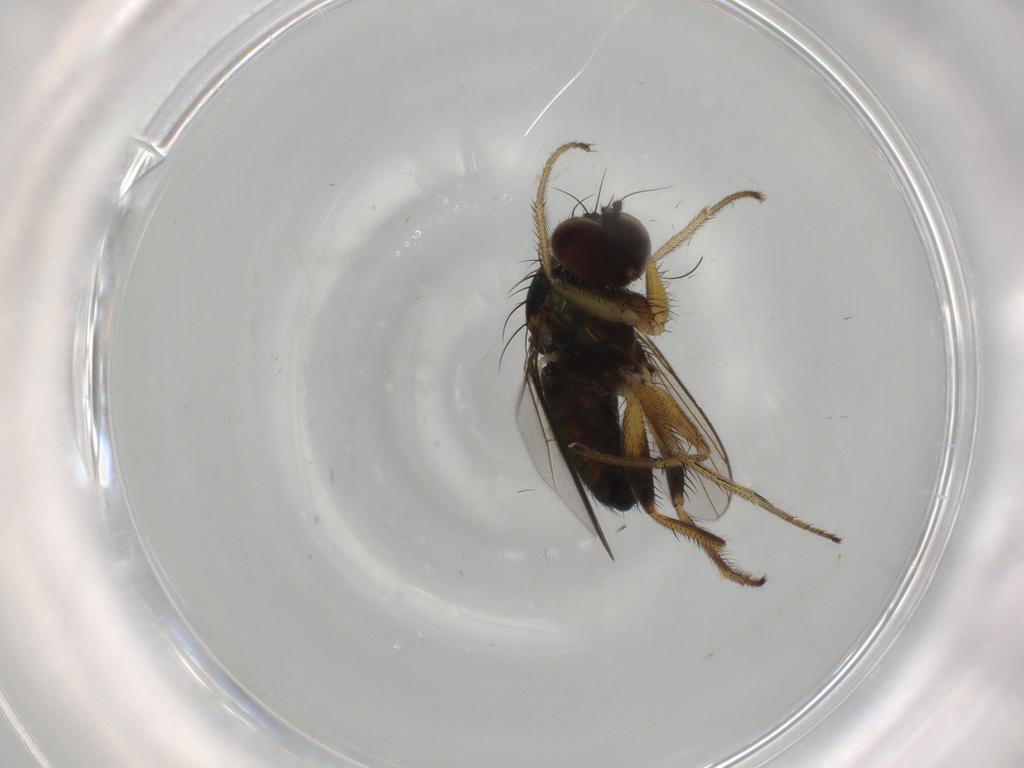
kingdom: Animalia
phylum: Arthropoda
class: Insecta
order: Diptera
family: Dolichopodidae
